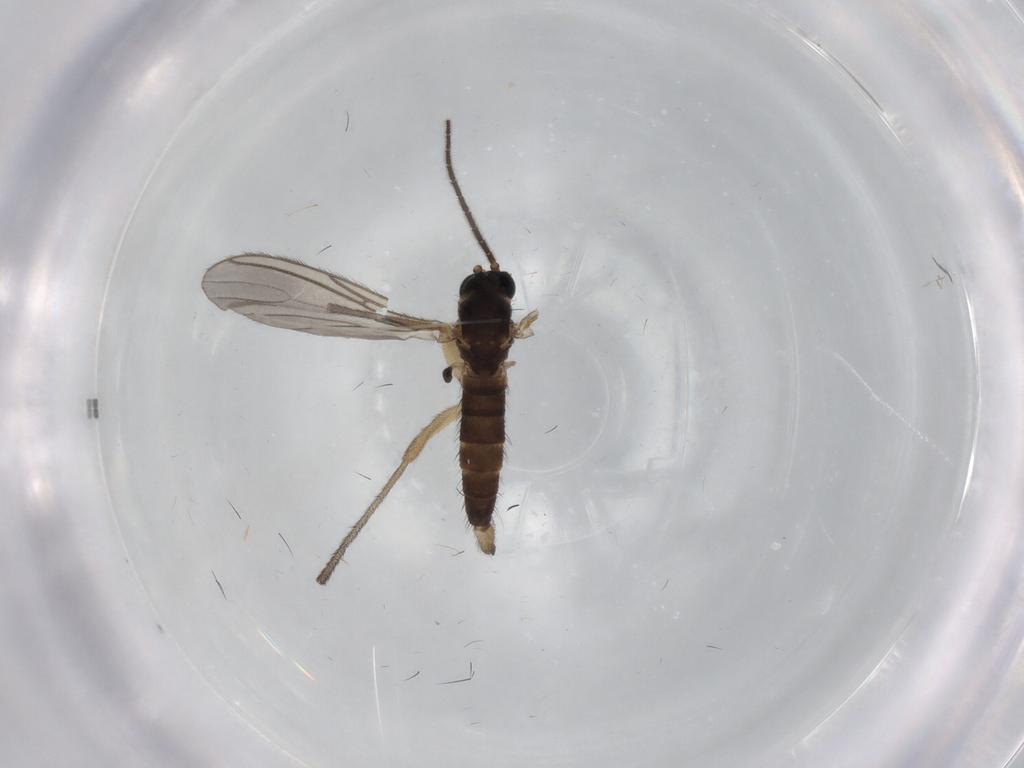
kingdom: Animalia
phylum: Arthropoda
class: Insecta
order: Diptera
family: Sciaridae
